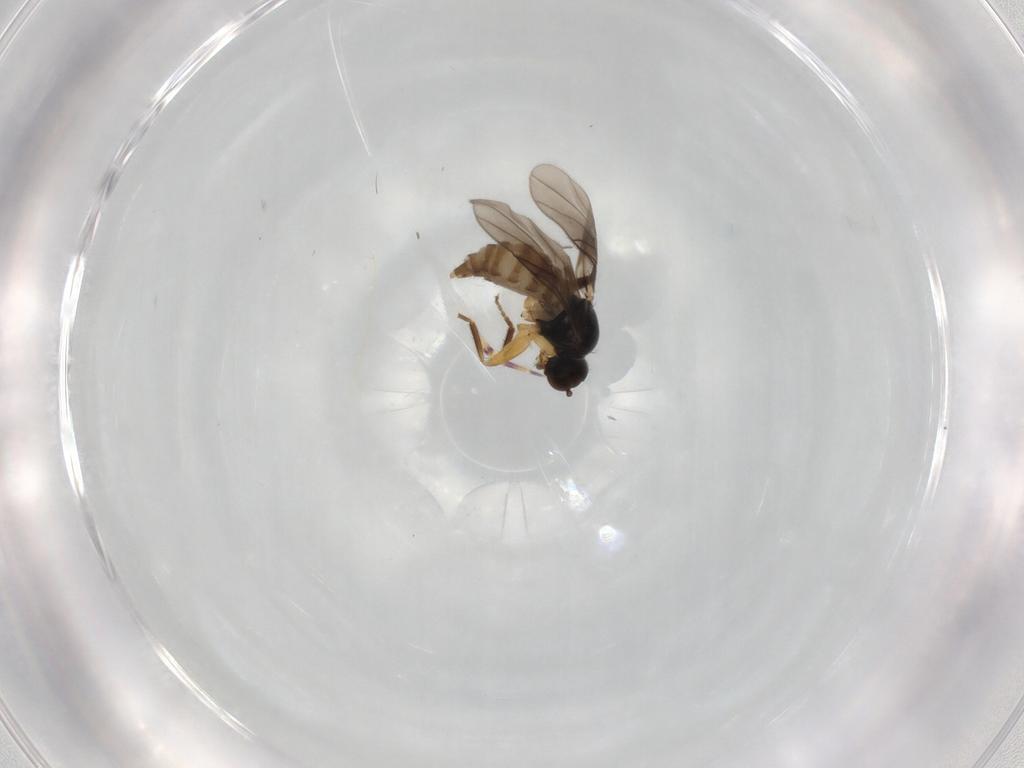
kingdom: Animalia
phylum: Arthropoda
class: Insecta
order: Diptera
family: Hybotidae
